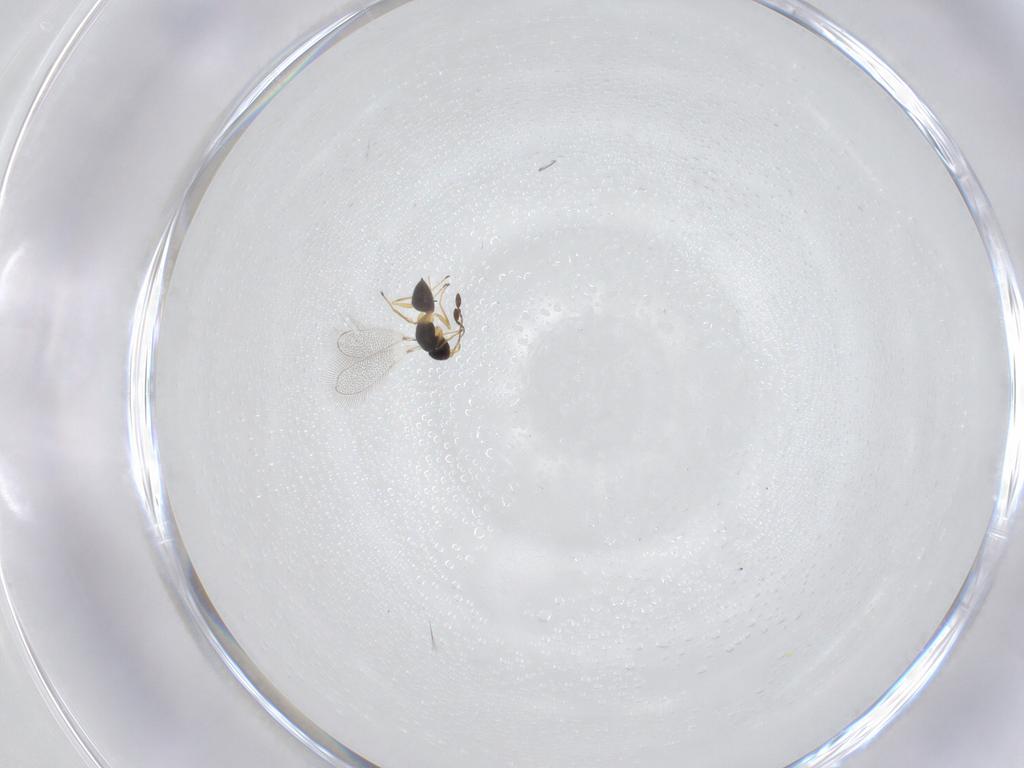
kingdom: Animalia
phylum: Arthropoda
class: Insecta
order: Hymenoptera
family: Mymaridae
